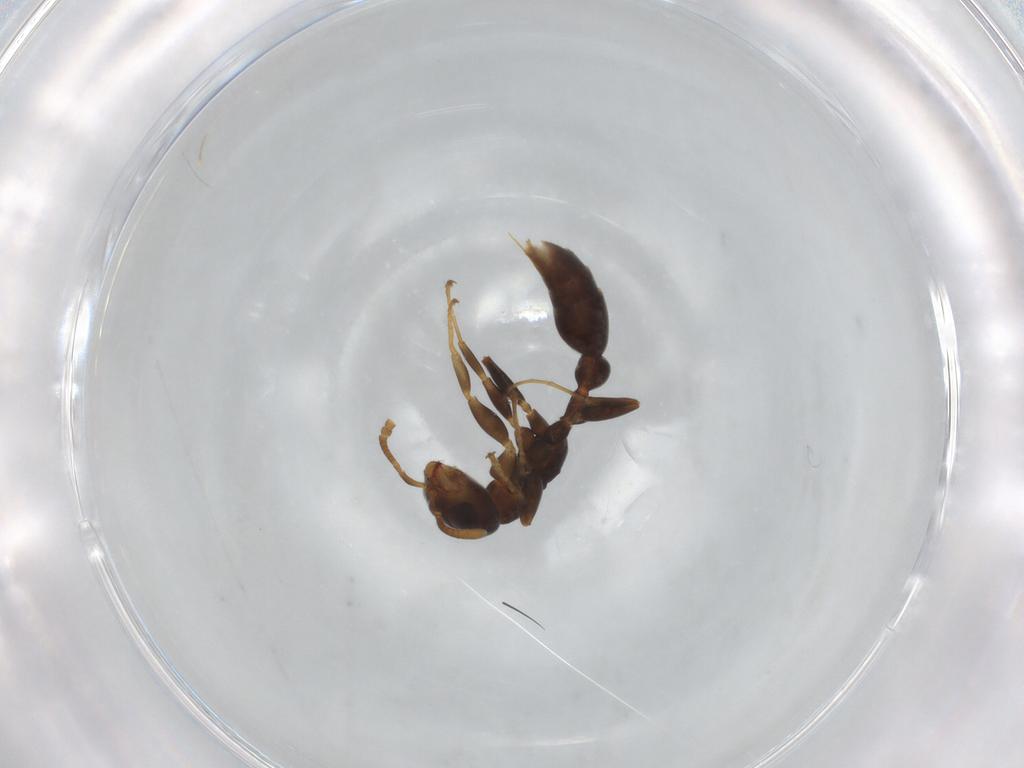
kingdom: Animalia
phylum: Arthropoda
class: Insecta
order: Hymenoptera
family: Formicidae
